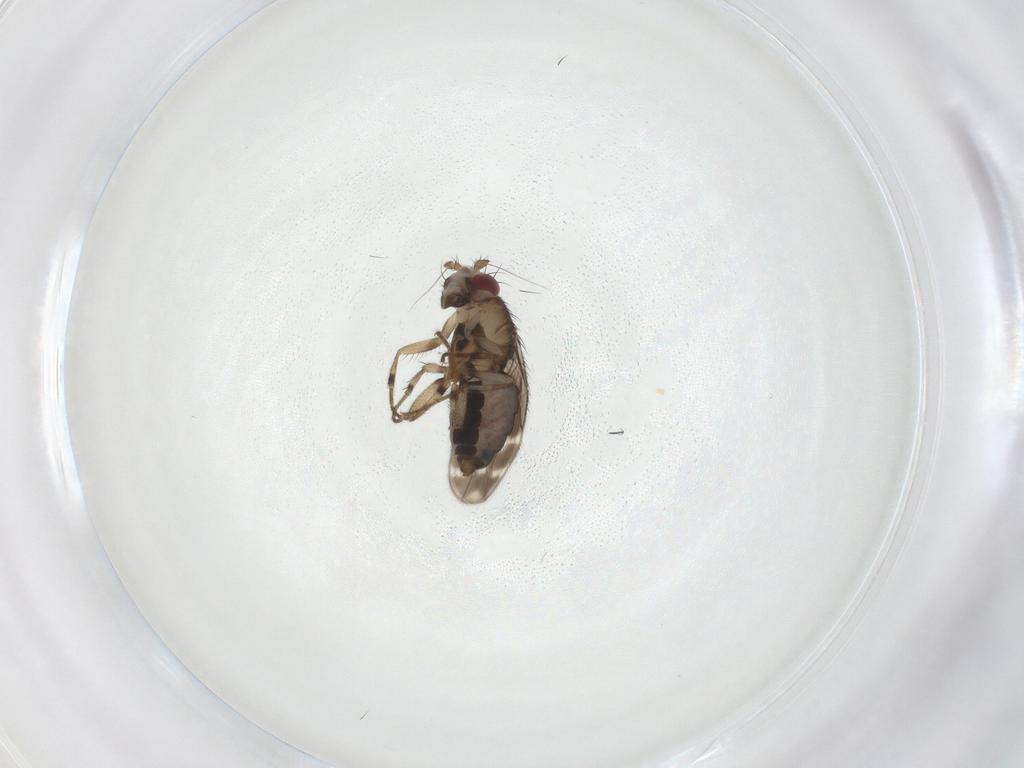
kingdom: Animalia
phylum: Arthropoda
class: Insecta
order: Diptera
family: Sphaeroceridae
